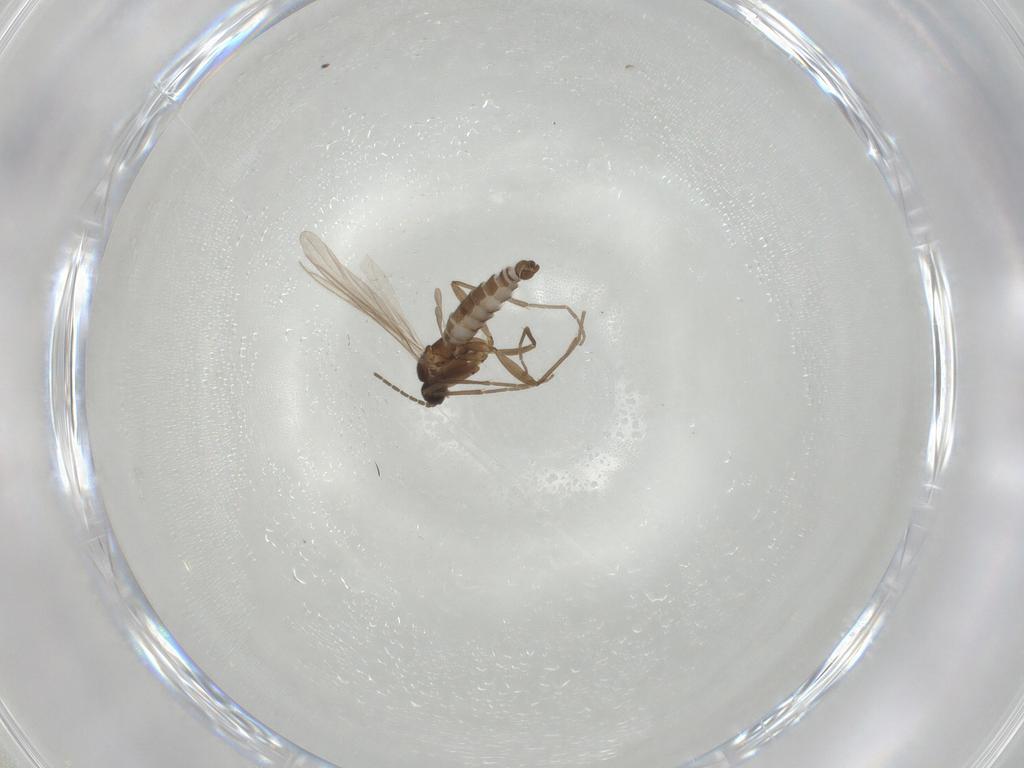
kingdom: Animalia
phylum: Arthropoda
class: Insecta
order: Diptera
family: Sciaridae
